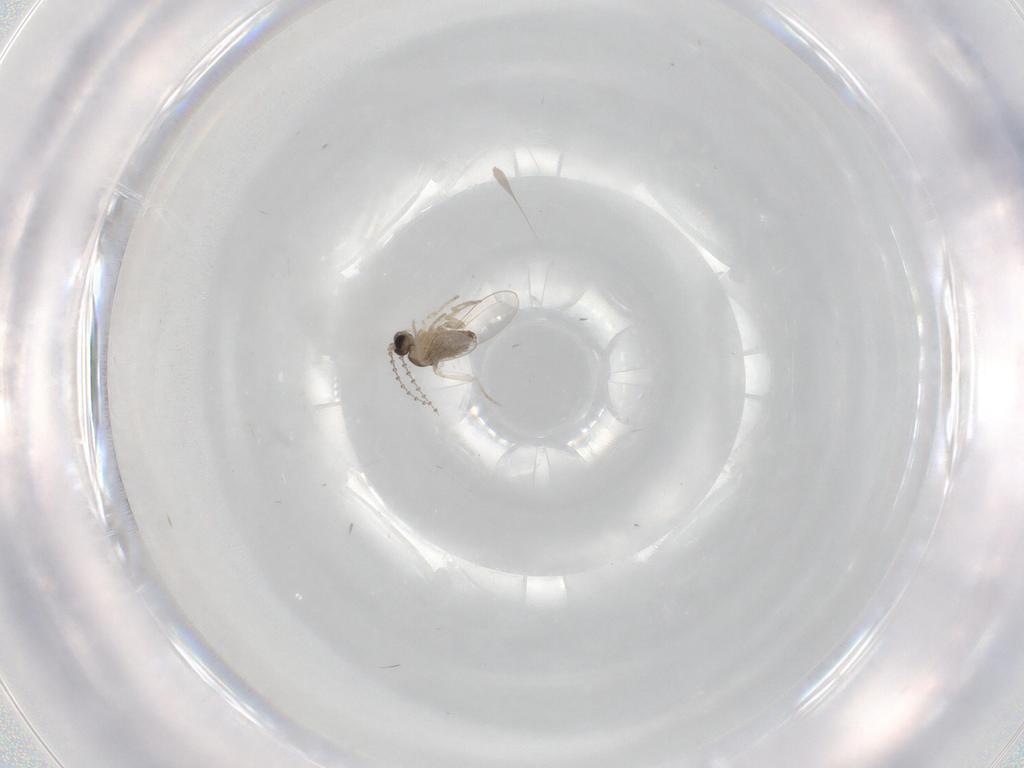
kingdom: Animalia
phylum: Arthropoda
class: Insecta
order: Diptera
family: Cecidomyiidae
